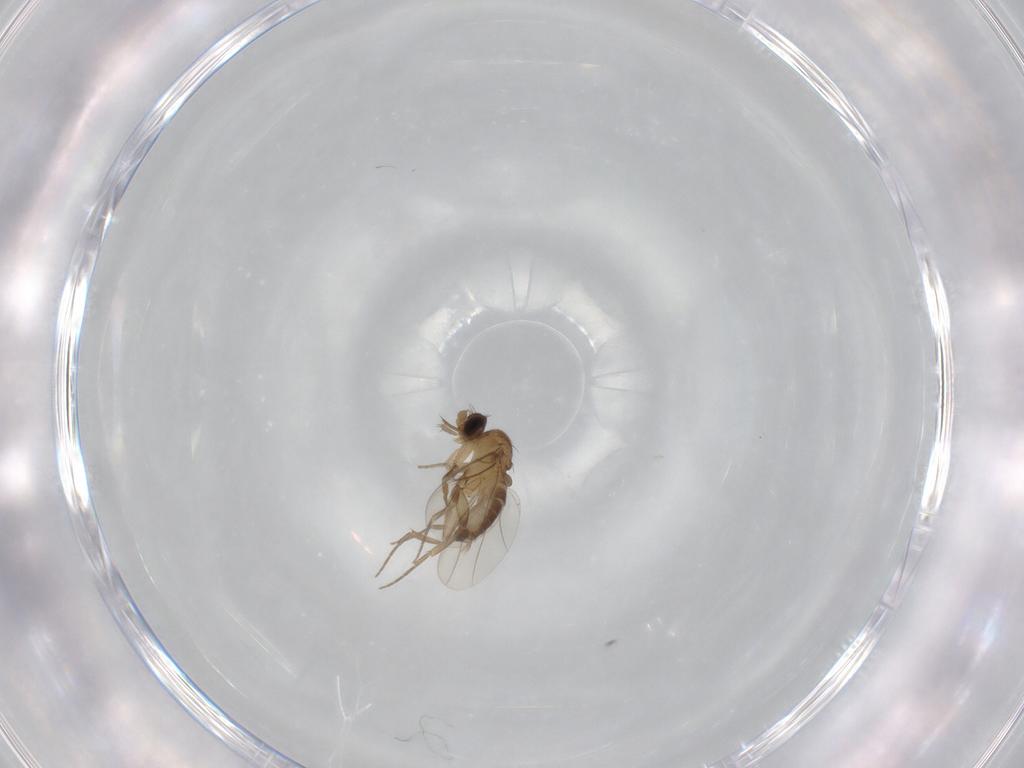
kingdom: Animalia
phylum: Arthropoda
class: Insecta
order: Diptera
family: Phoridae
